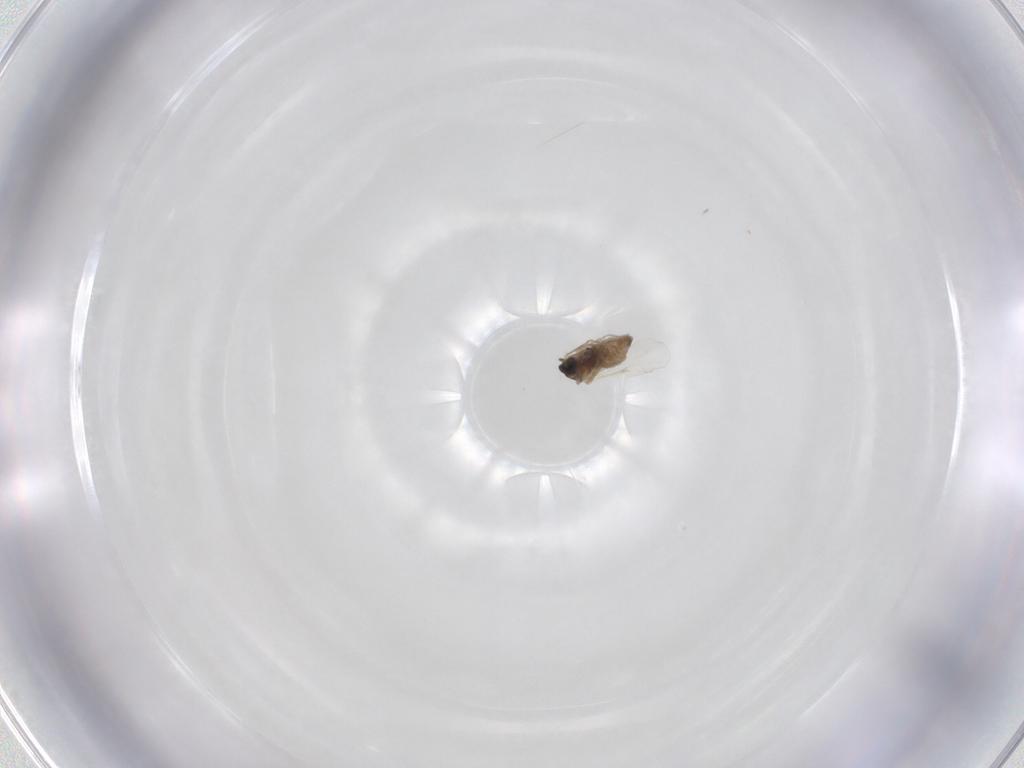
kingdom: Animalia
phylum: Arthropoda
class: Insecta
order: Diptera
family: Cecidomyiidae
